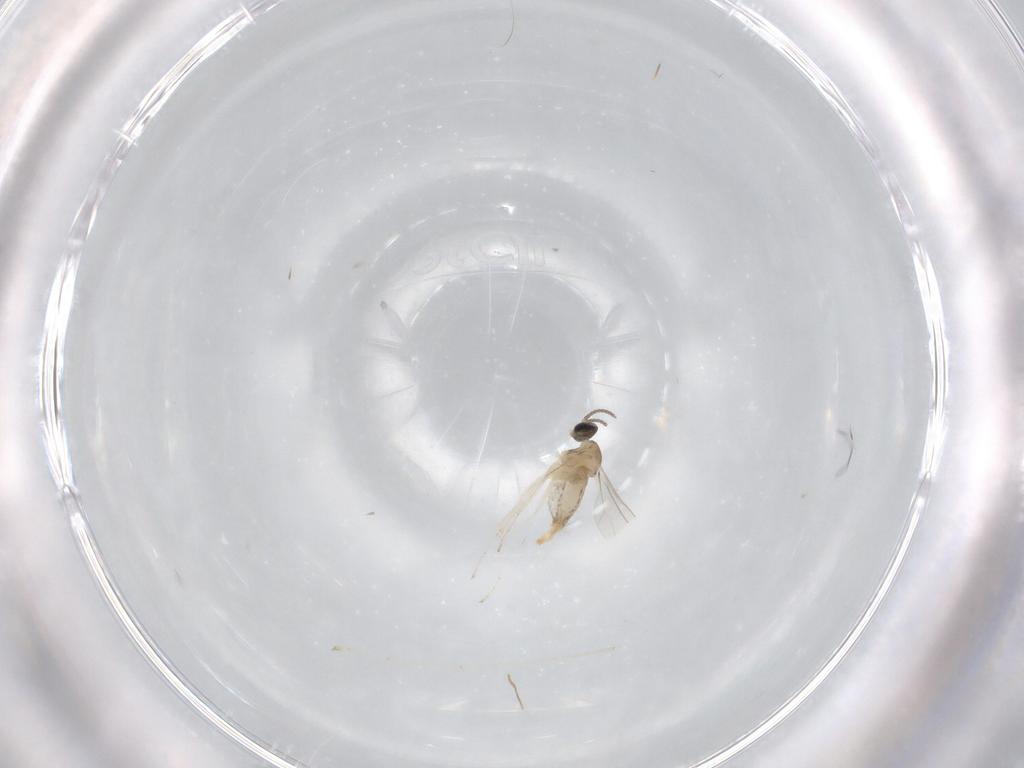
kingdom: Animalia
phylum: Arthropoda
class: Insecta
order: Diptera
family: Cecidomyiidae
